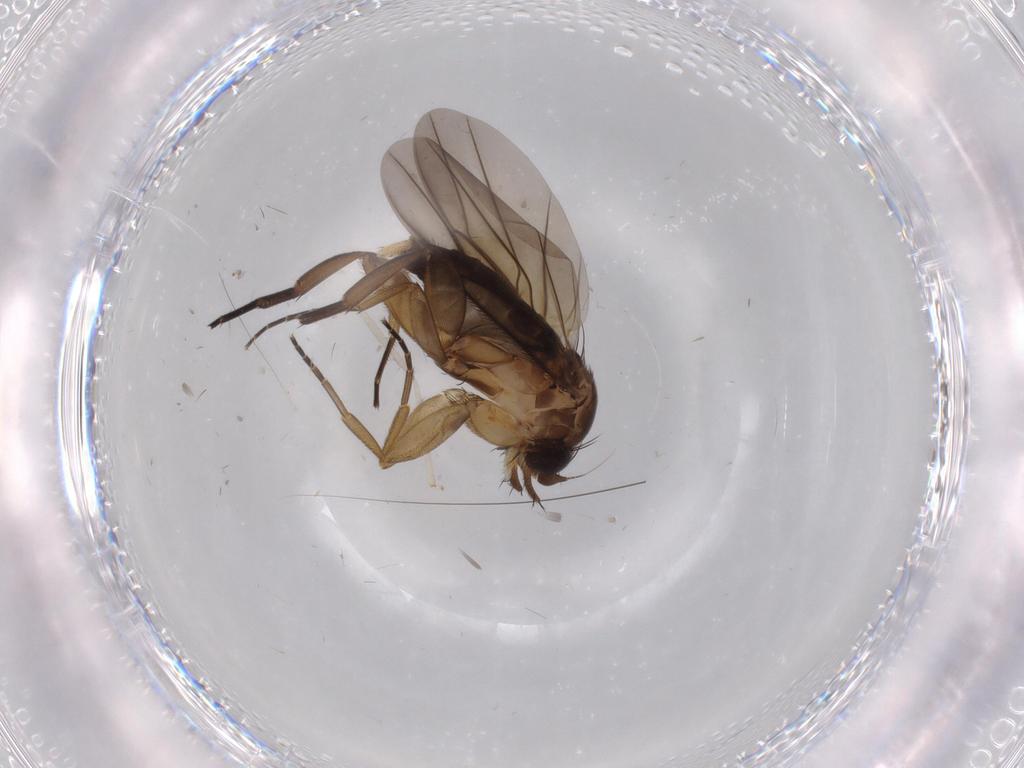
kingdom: Animalia
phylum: Arthropoda
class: Insecta
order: Diptera
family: Phoridae
